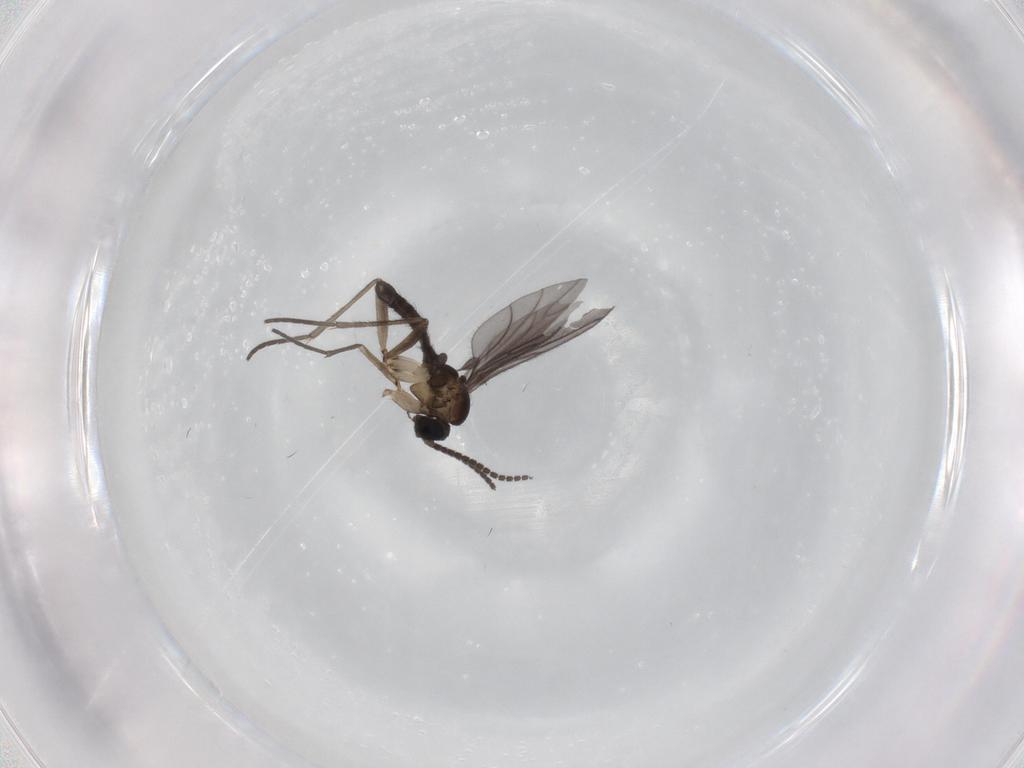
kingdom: Animalia
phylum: Arthropoda
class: Insecta
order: Diptera
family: Sciaridae
